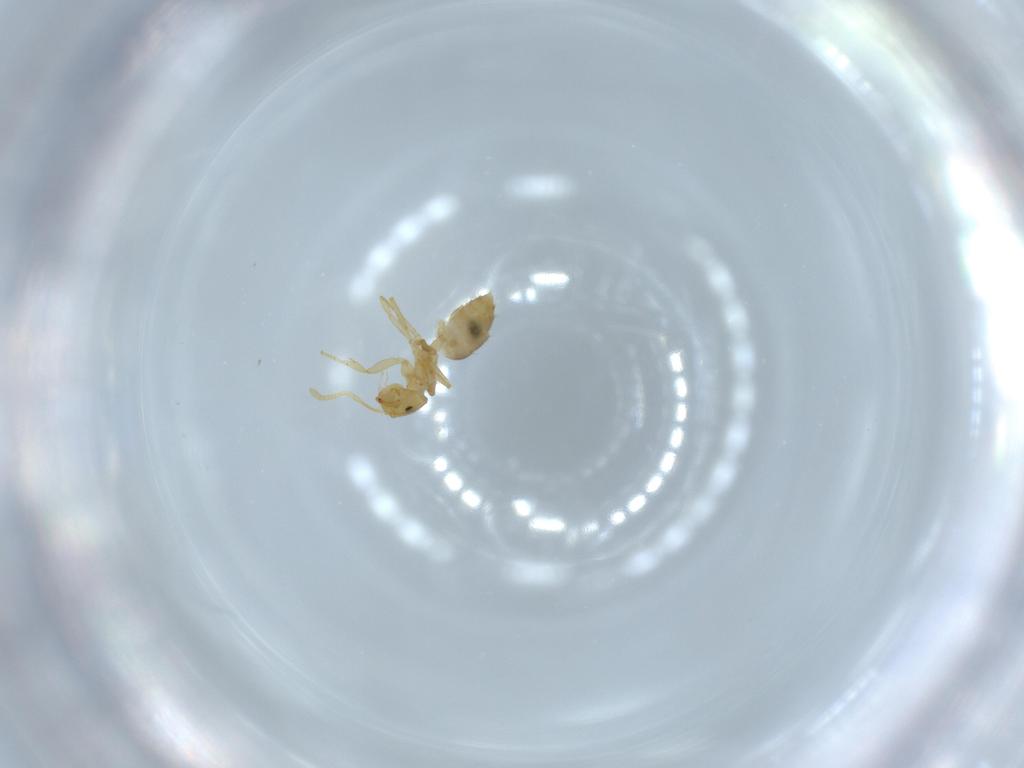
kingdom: Animalia
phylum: Arthropoda
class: Insecta
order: Hymenoptera
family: Formicidae
